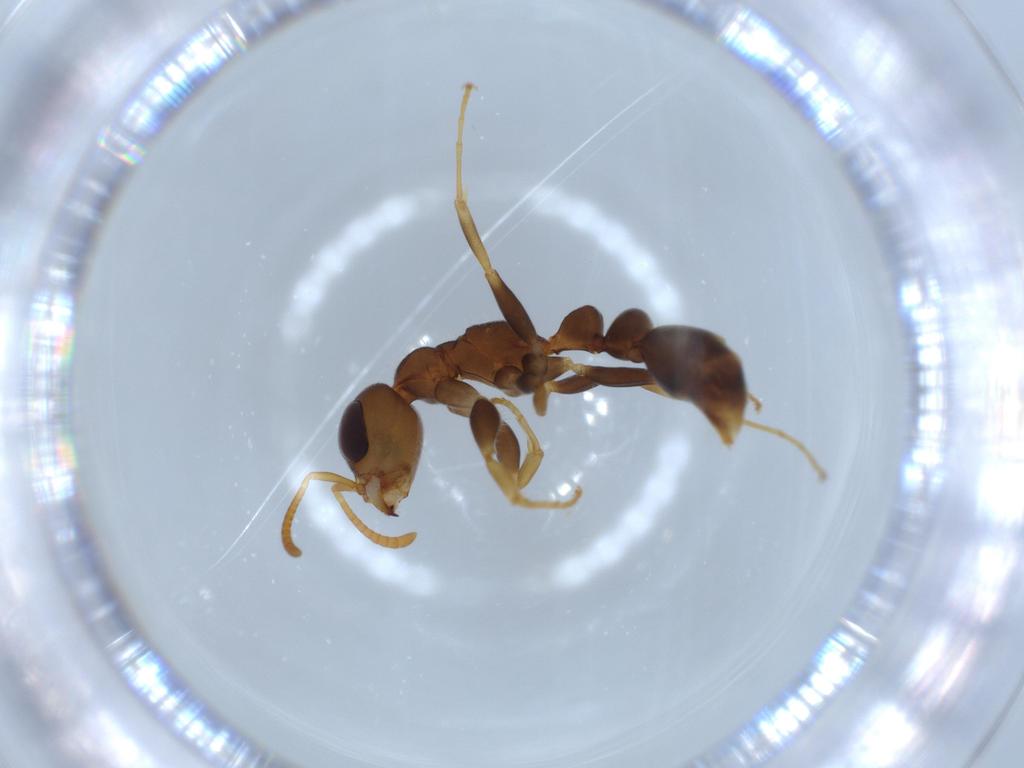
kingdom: Animalia
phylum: Arthropoda
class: Insecta
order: Hymenoptera
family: Formicidae
